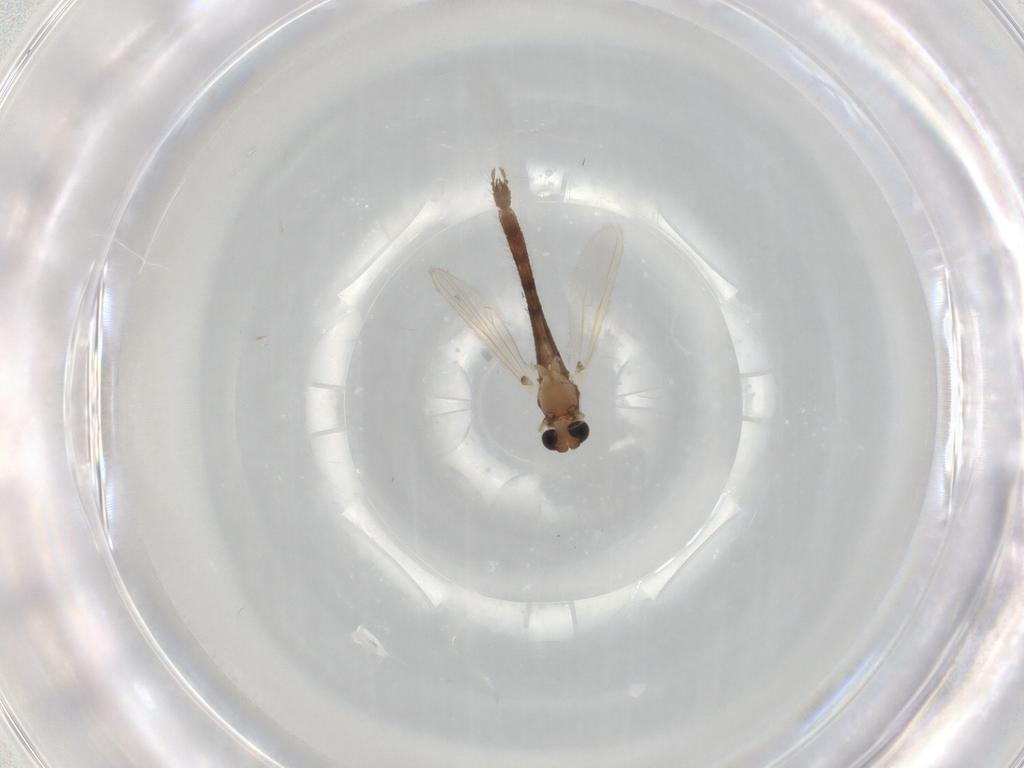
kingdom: Animalia
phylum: Arthropoda
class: Insecta
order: Diptera
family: Chironomidae
